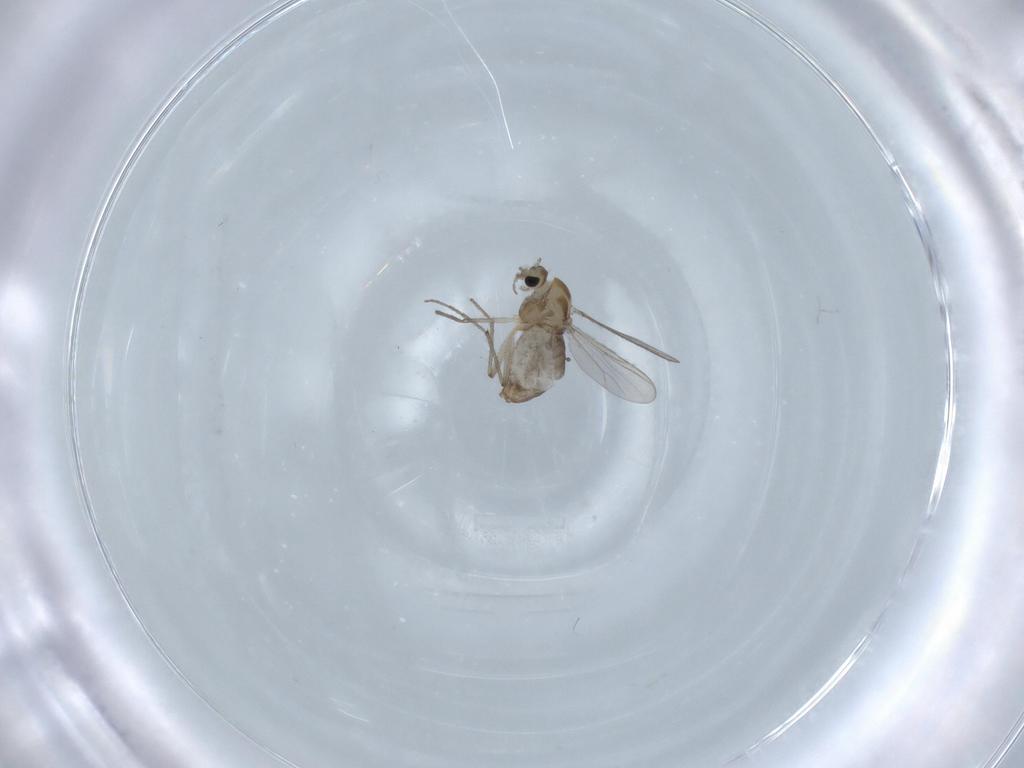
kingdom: Animalia
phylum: Arthropoda
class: Insecta
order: Diptera
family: Chironomidae
